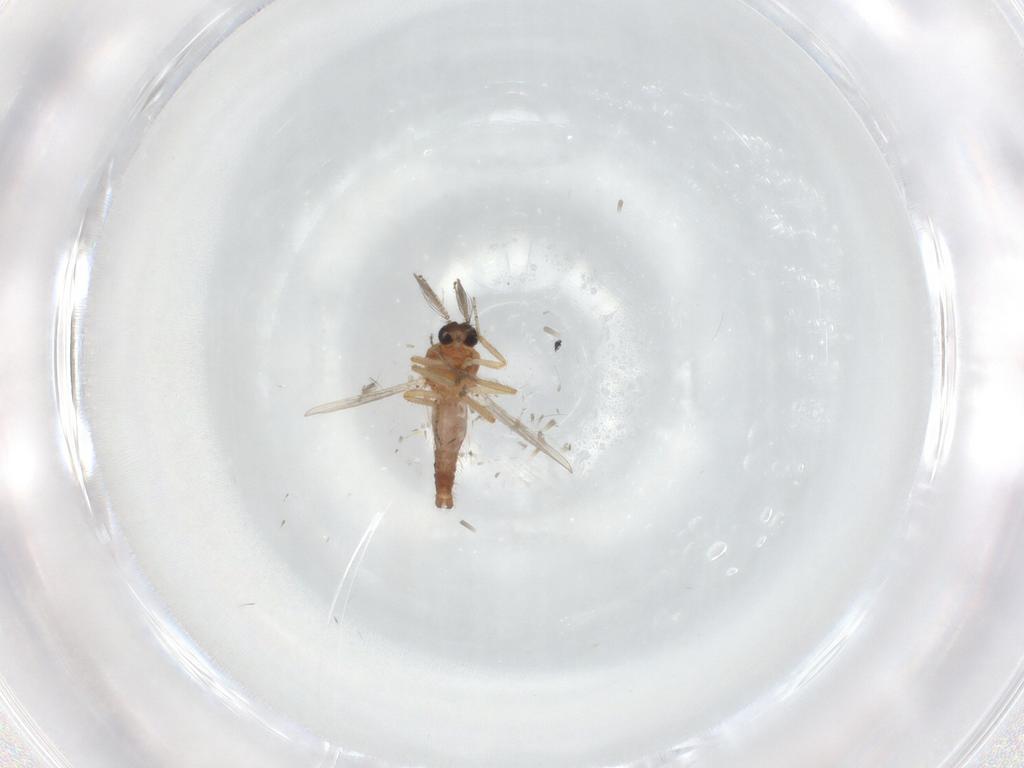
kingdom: Animalia
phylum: Arthropoda
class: Insecta
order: Diptera
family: Ceratopogonidae
